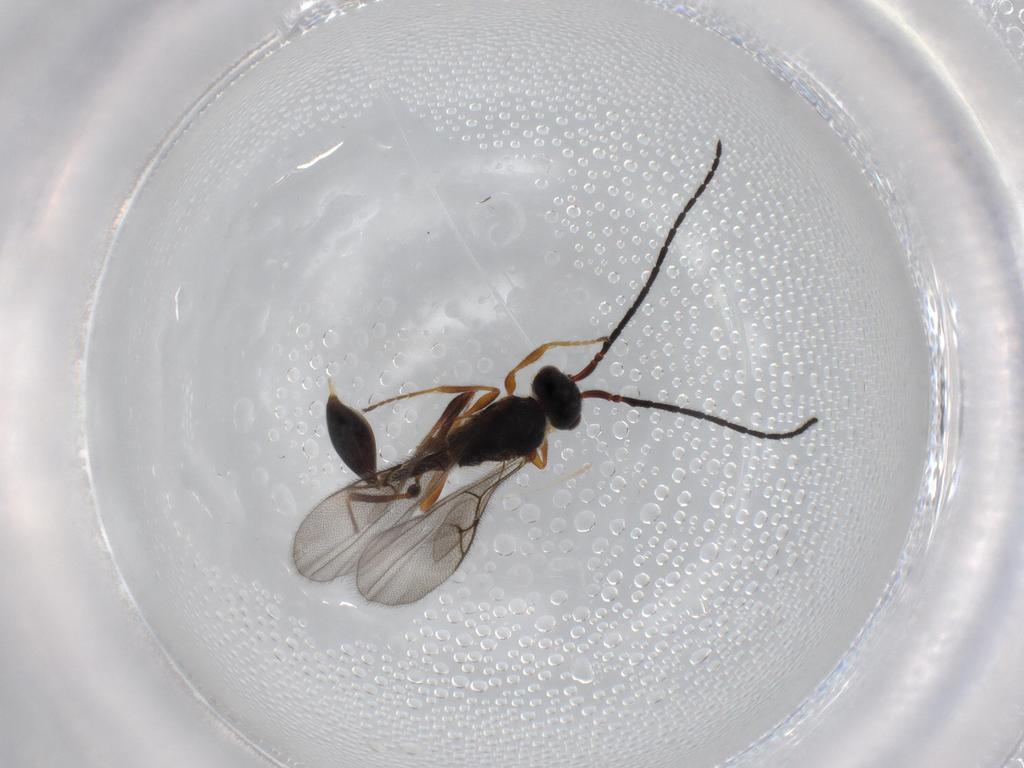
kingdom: Animalia
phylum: Arthropoda
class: Insecta
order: Hymenoptera
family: Diapriidae
